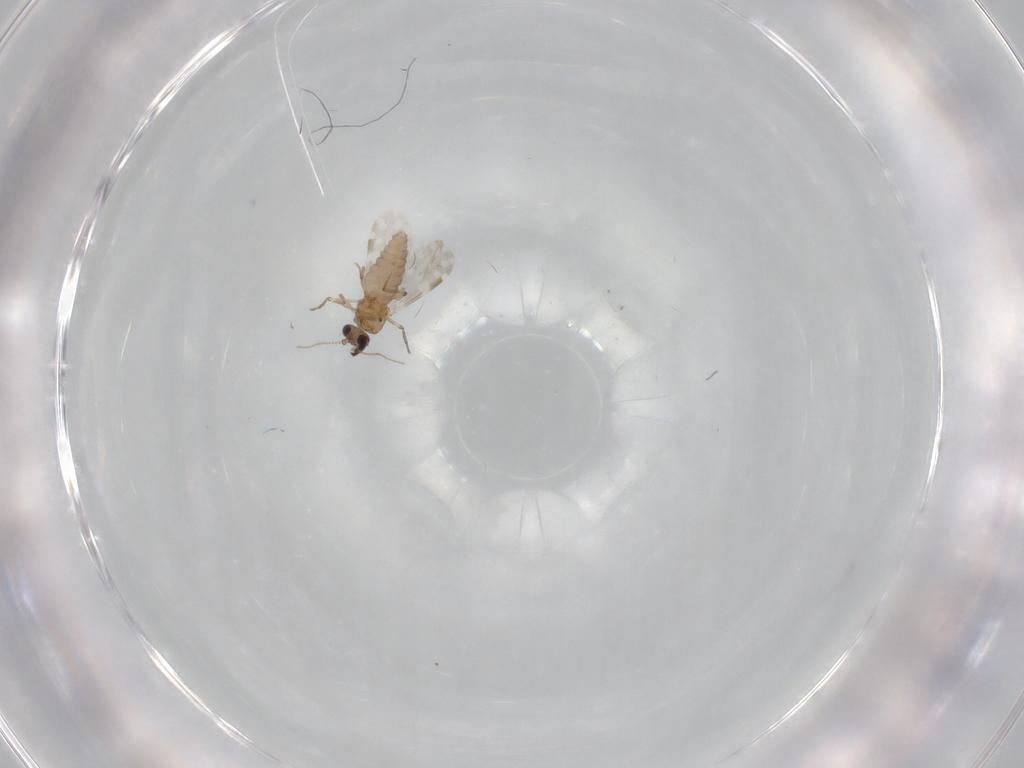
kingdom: Animalia
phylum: Arthropoda
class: Insecta
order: Diptera
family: Ceratopogonidae
